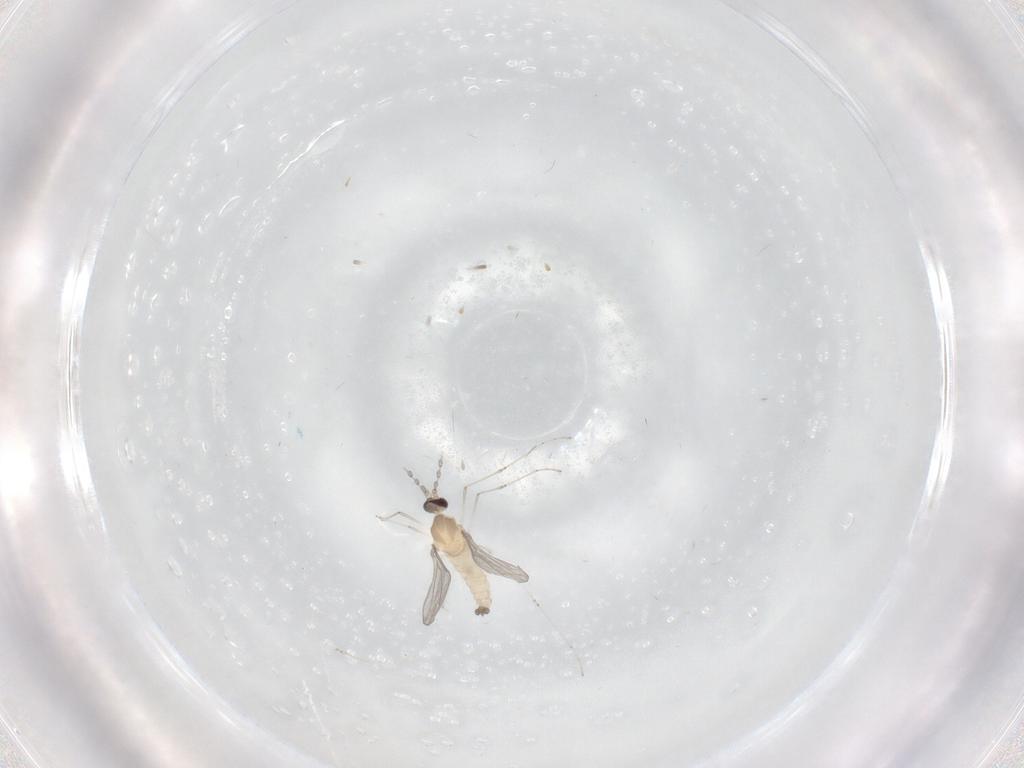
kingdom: Animalia
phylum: Arthropoda
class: Insecta
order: Diptera
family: Cecidomyiidae
